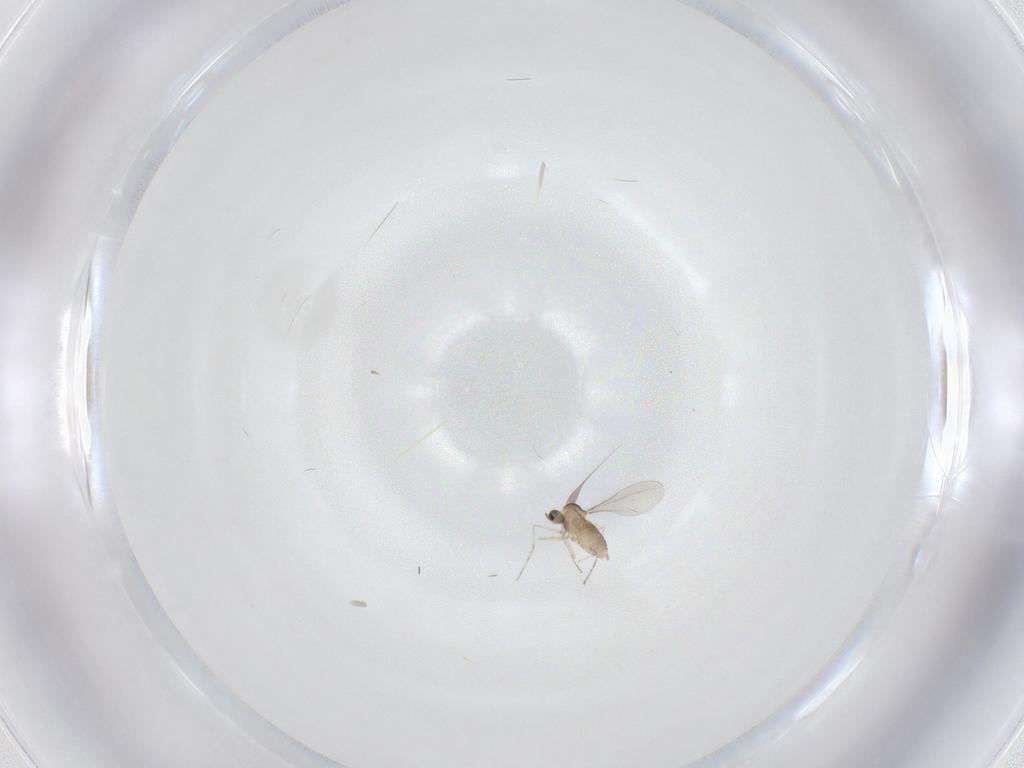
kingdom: Animalia
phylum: Arthropoda
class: Insecta
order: Diptera
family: Cecidomyiidae
